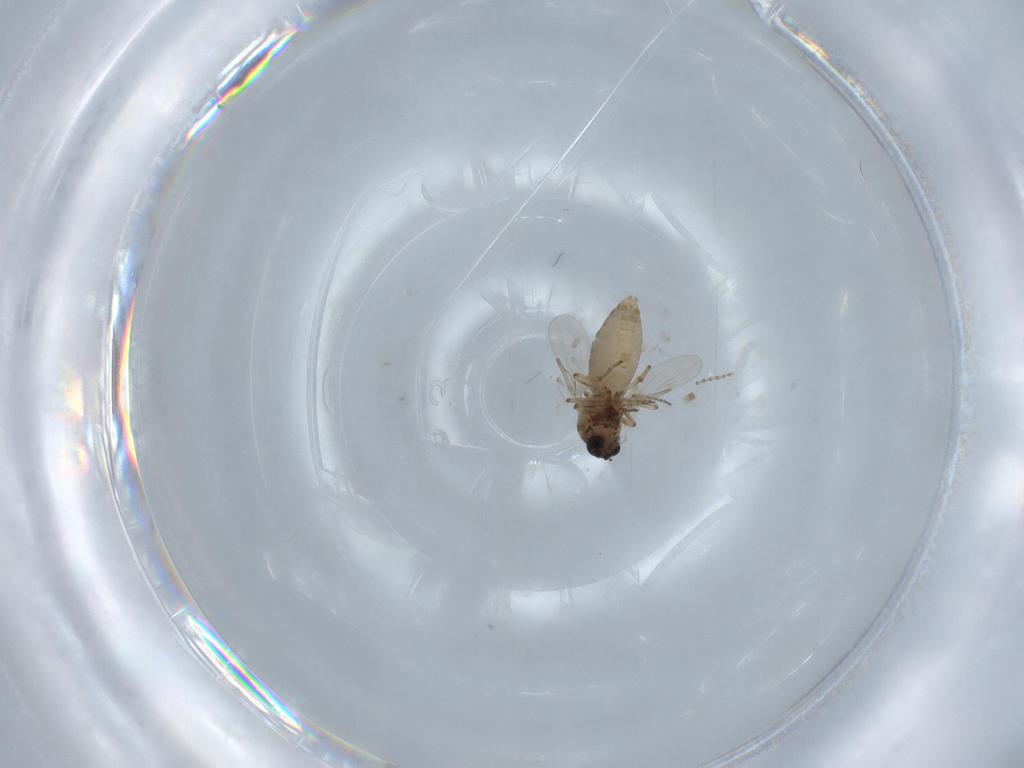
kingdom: Animalia
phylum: Arthropoda
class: Insecta
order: Diptera
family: Ceratopogonidae
